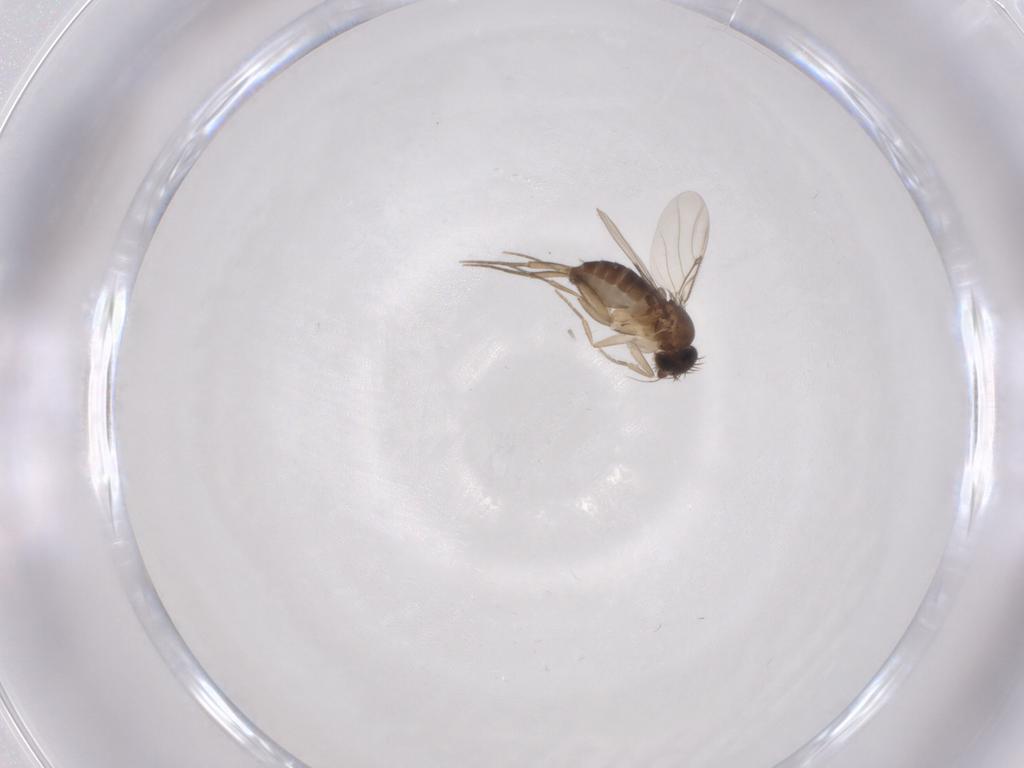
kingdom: Animalia
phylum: Arthropoda
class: Insecta
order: Diptera
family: Phoridae
